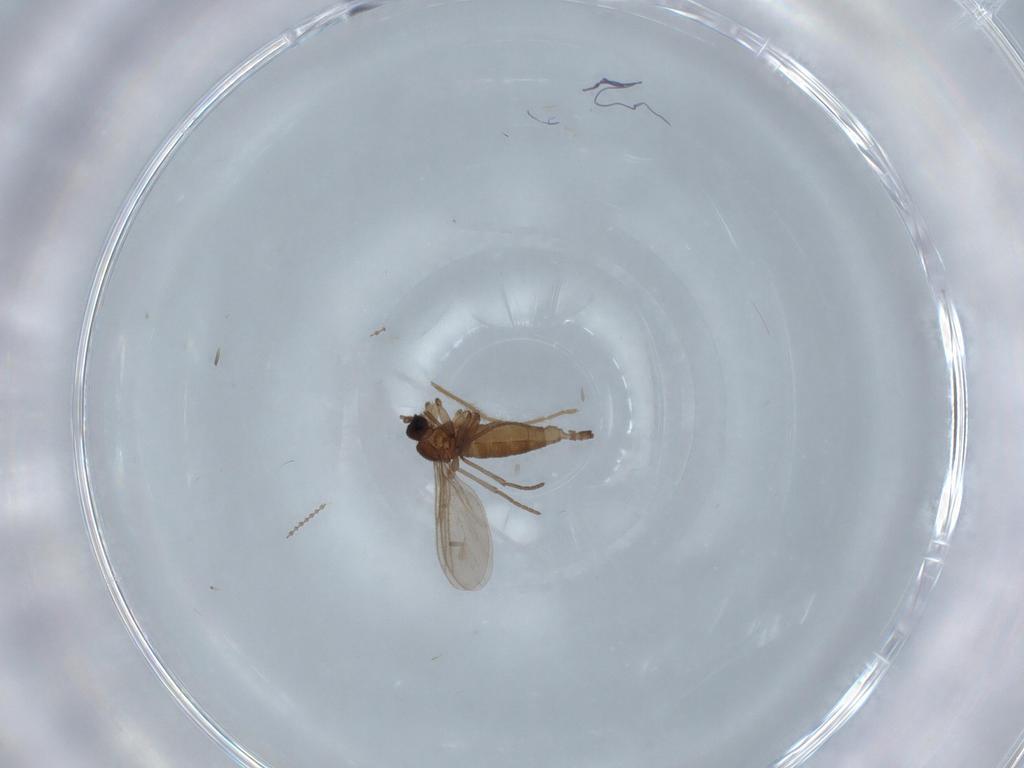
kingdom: Animalia
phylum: Arthropoda
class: Insecta
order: Diptera
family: Cecidomyiidae
